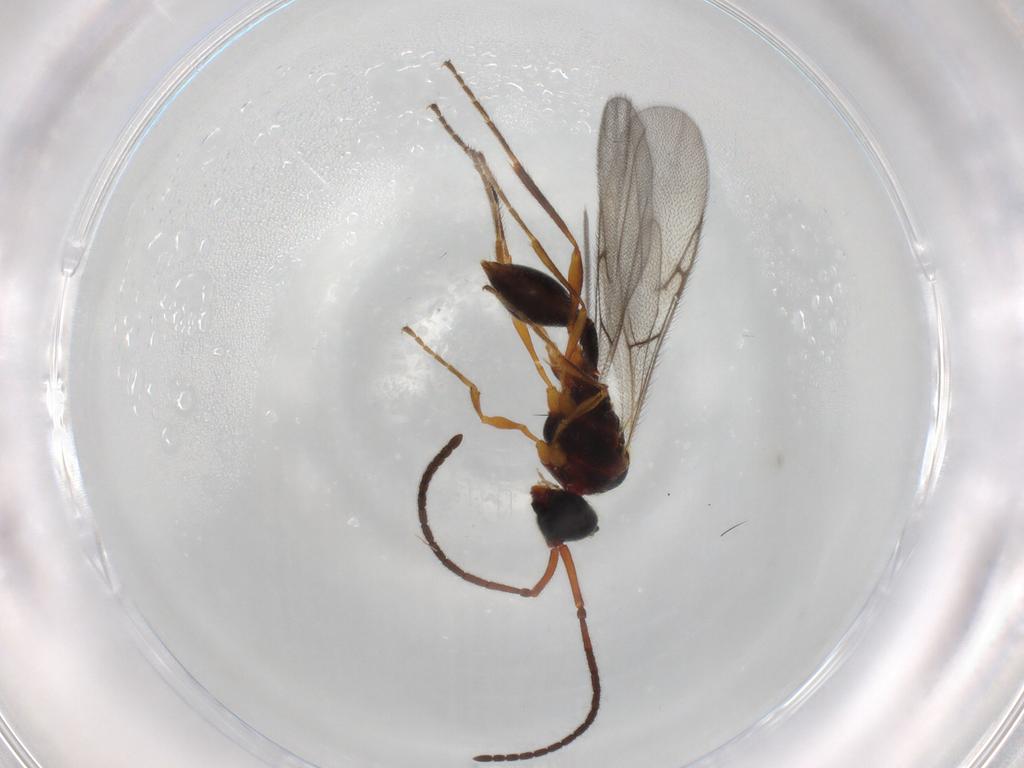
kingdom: Animalia
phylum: Arthropoda
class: Insecta
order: Hymenoptera
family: Diapriidae
